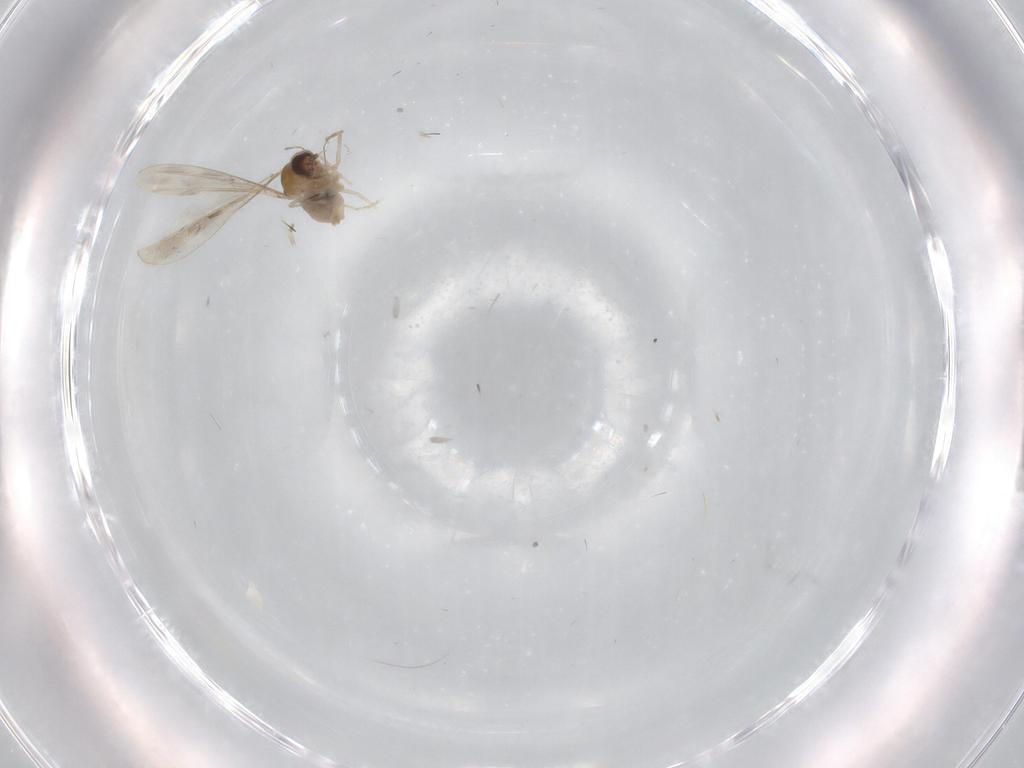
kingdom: Animalia
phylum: Arthropoda
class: Insecta
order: Diptera
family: Cecidomyiidae
